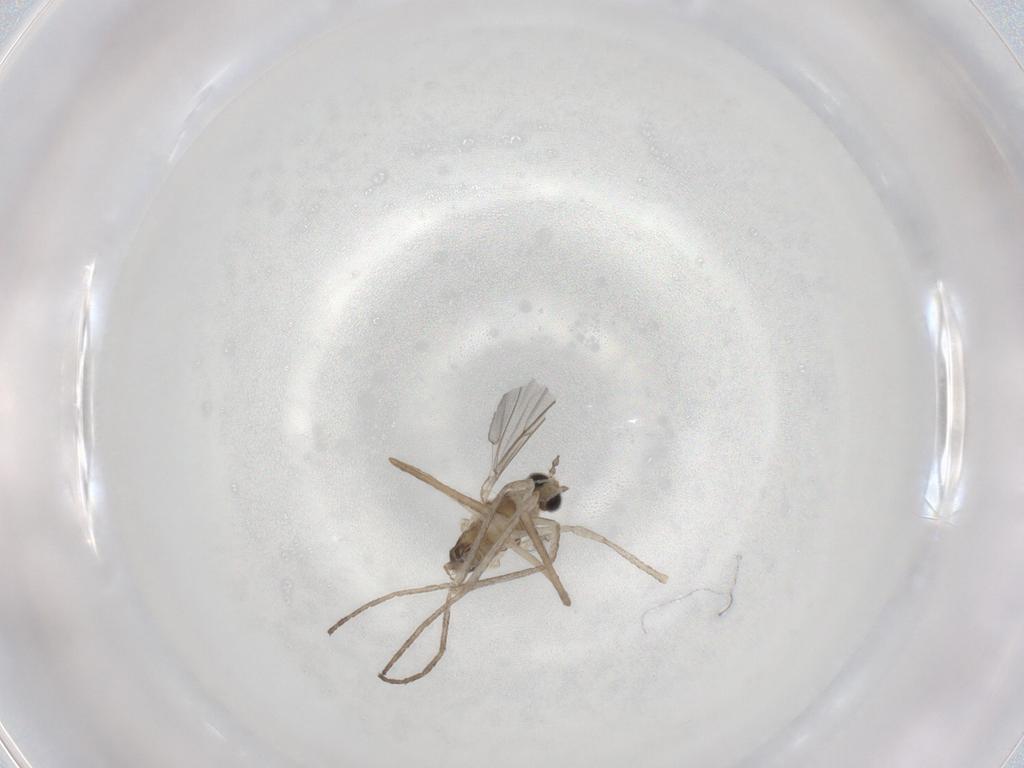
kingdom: Animalia
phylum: Arthropoda
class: Insecta
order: Diptera
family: Cecidomyiidae
